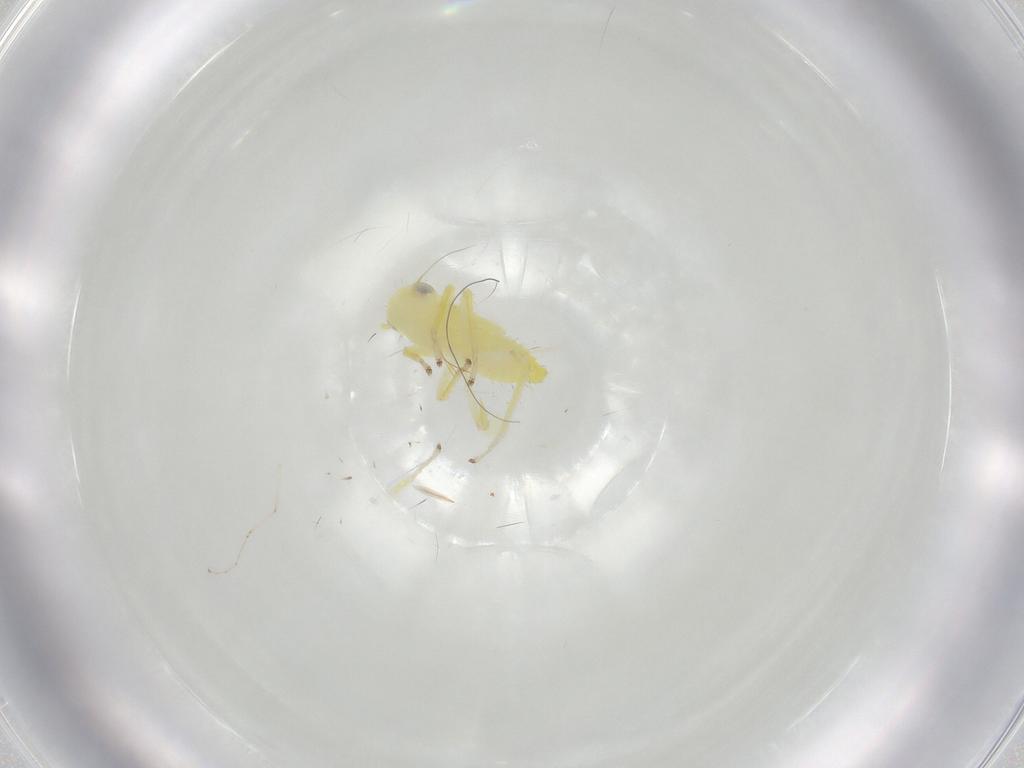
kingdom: Animalia
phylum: Arthropoda
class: Insecta
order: Hemiptera
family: Cicadellidae
